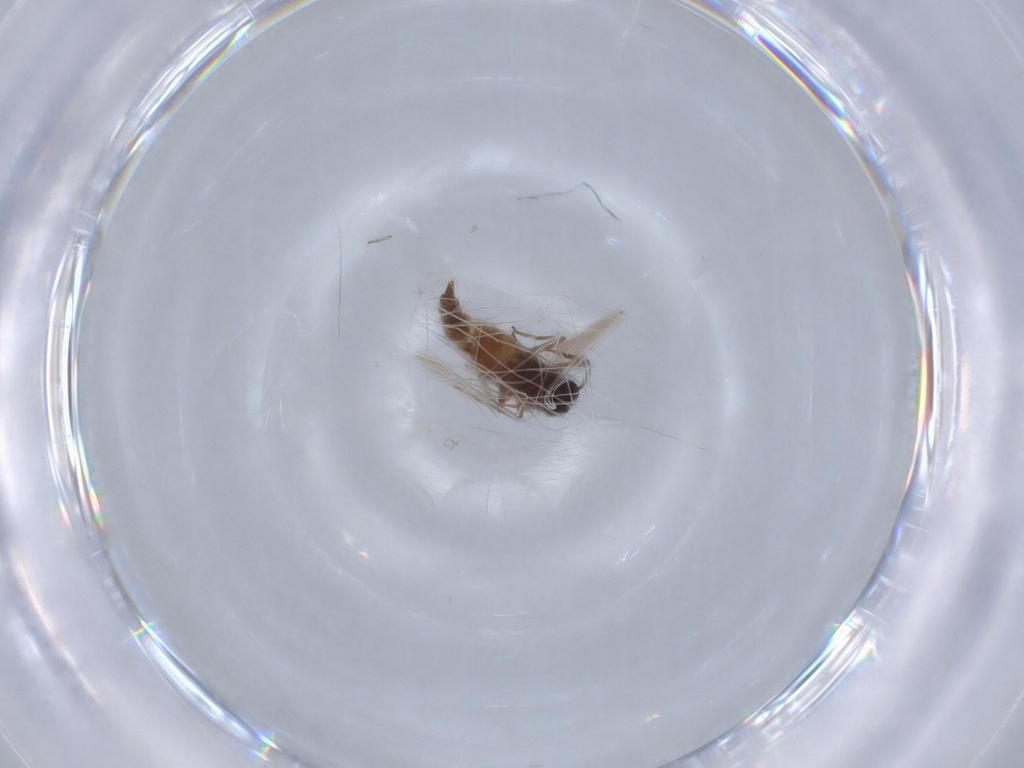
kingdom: Animalia
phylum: Arthropoda
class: Insecta
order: Diptera
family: Ceratopogonidae
